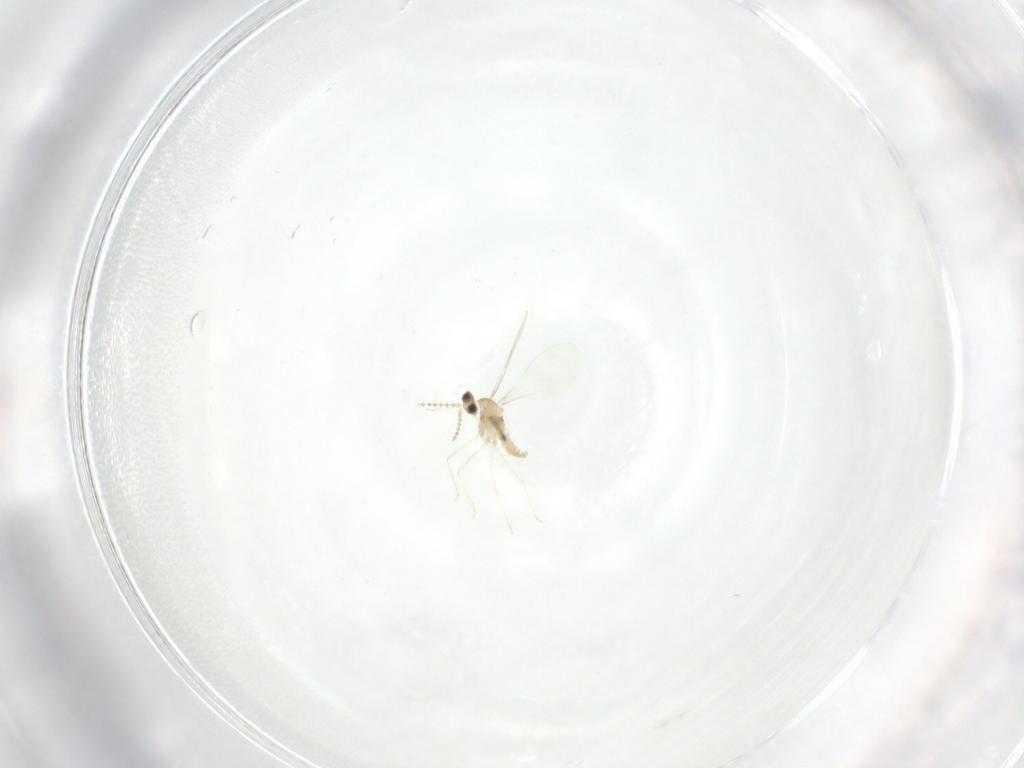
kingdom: Animalia
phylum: Arthropoda
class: Insecta
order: Diptera
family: Cecidomyiidae
